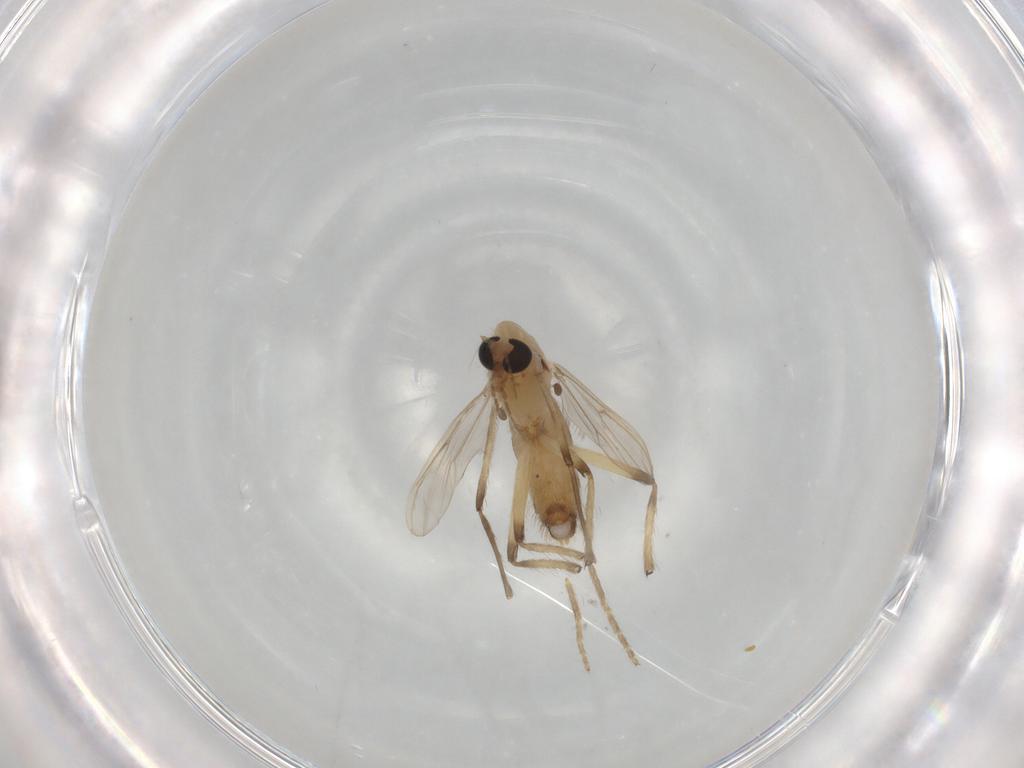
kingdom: Animalia
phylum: Arthropoda
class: Insecta
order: Diptera
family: Chironomidae
